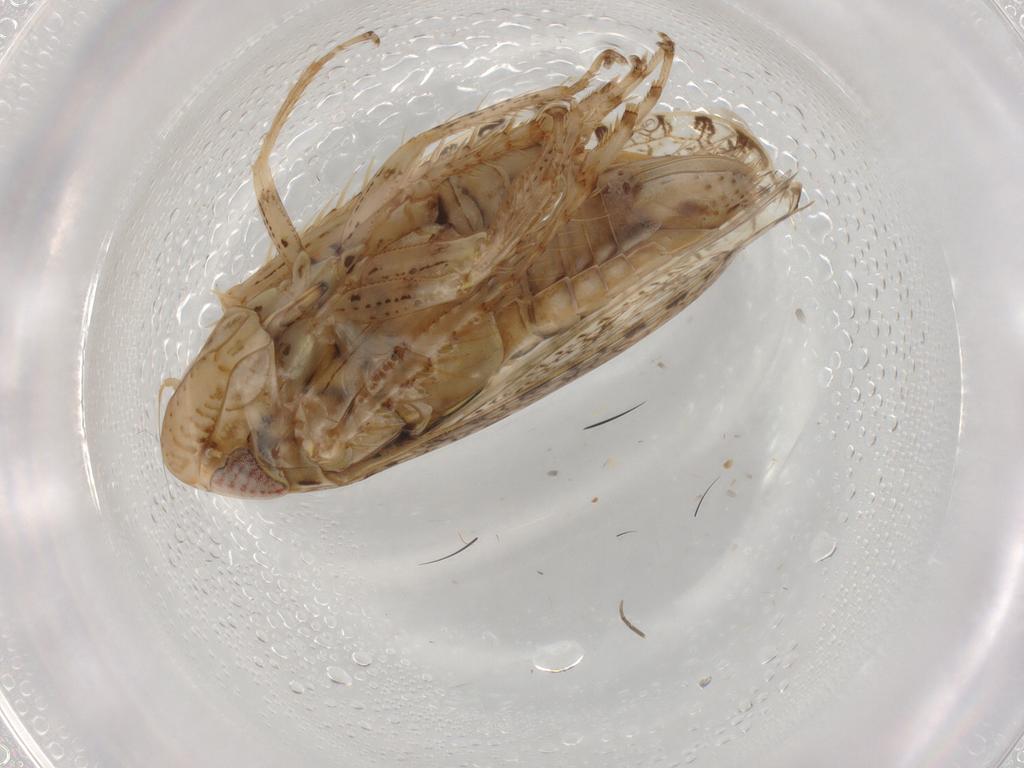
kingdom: Animalia
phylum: Arthropoda
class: Insecta
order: Hemiptera
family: Cicadellidae
